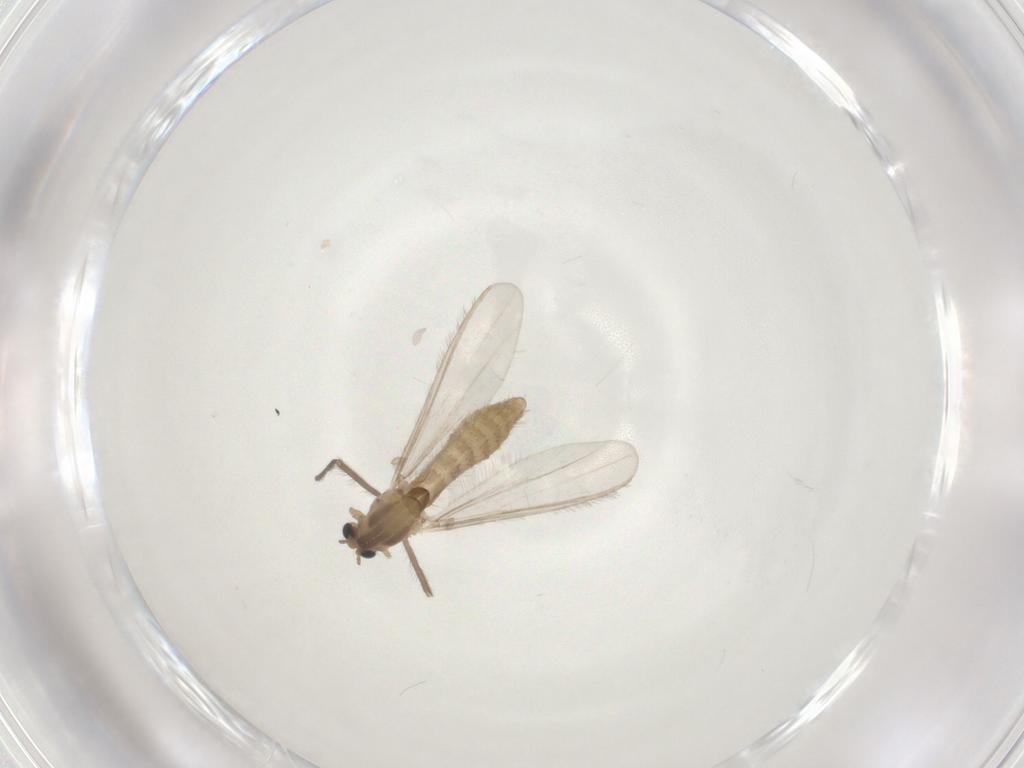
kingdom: Animalia
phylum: Arthropoda
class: Insecta
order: Diptera
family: Chironomidae
